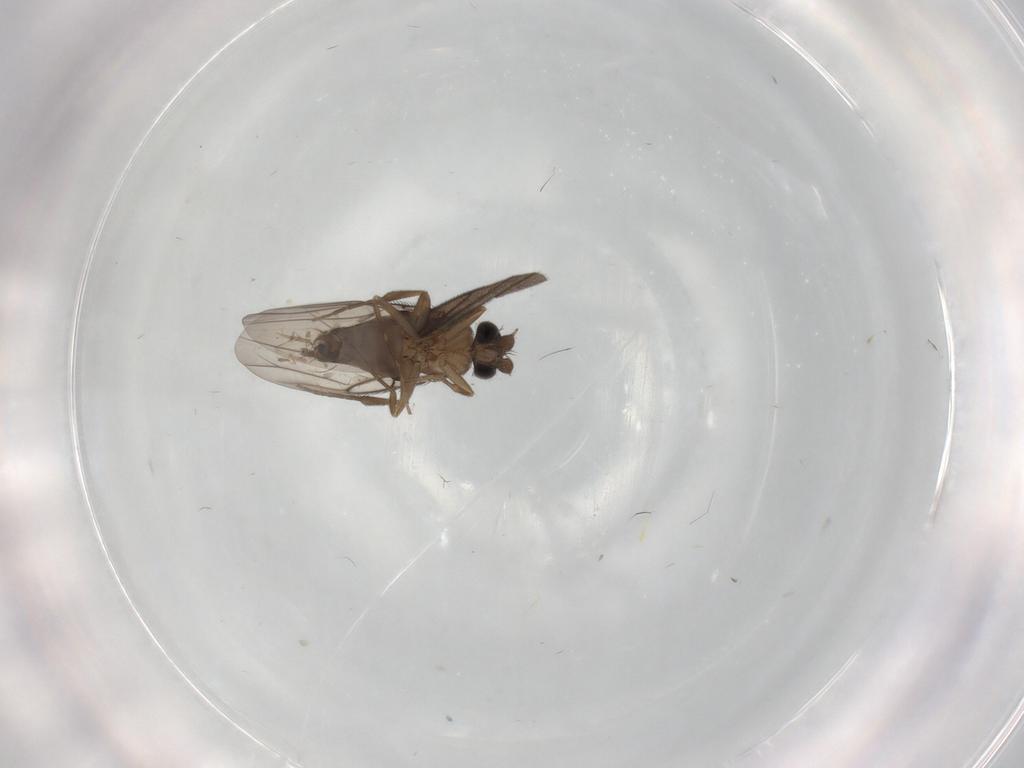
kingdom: Animalia
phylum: Arthropoda
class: Insecta
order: Diptera
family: Phoridae
